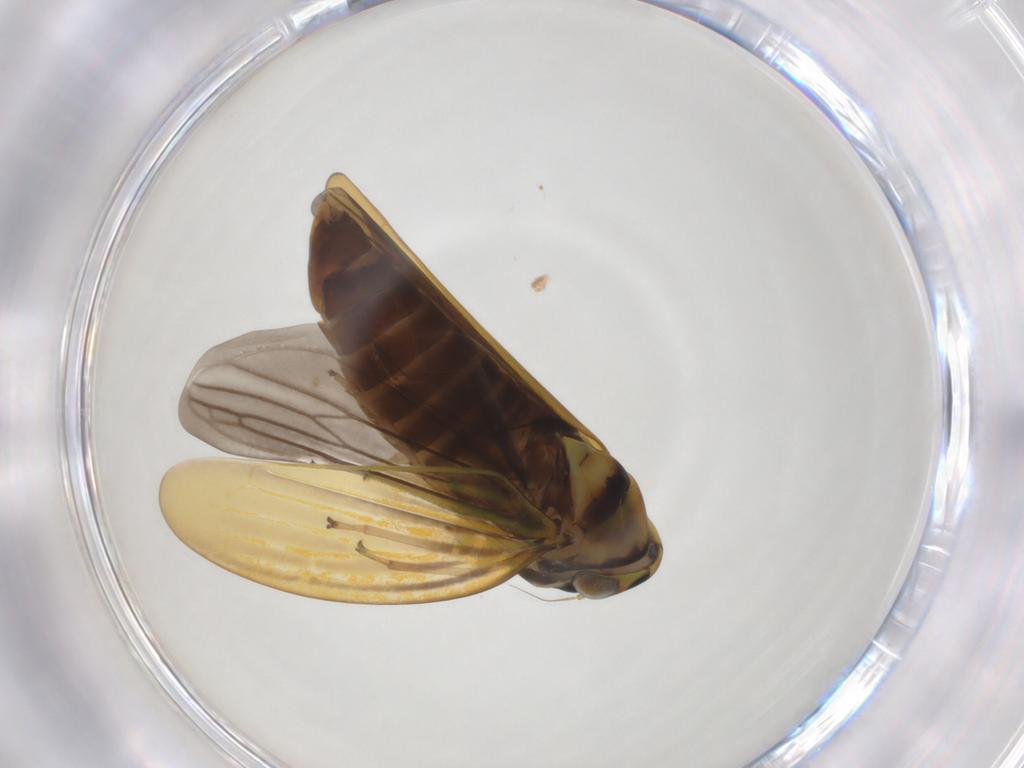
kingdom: Animalia
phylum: Arthropoda
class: Insecta
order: Hemiptera
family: Cicadellidae
